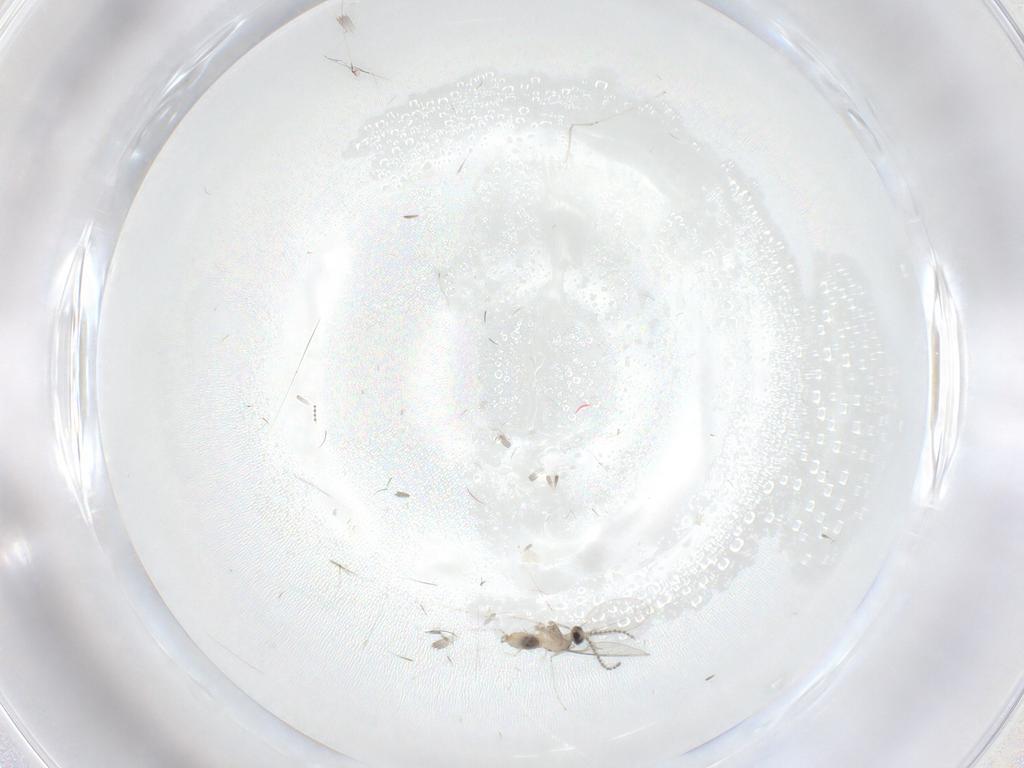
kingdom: Animalia
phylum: Arthropoda
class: Insecta
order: Diptera
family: Cecidomyiidae
